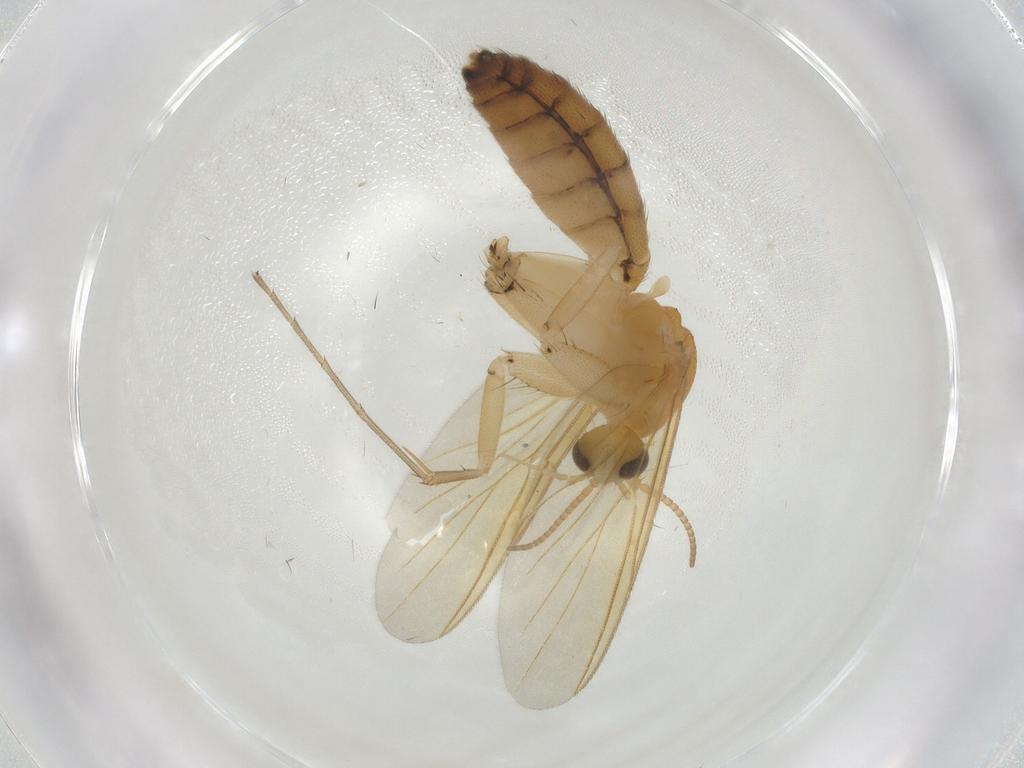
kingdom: Animalia
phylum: Arthropoda
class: Insecta
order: Diptera
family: Mycetophilidae
